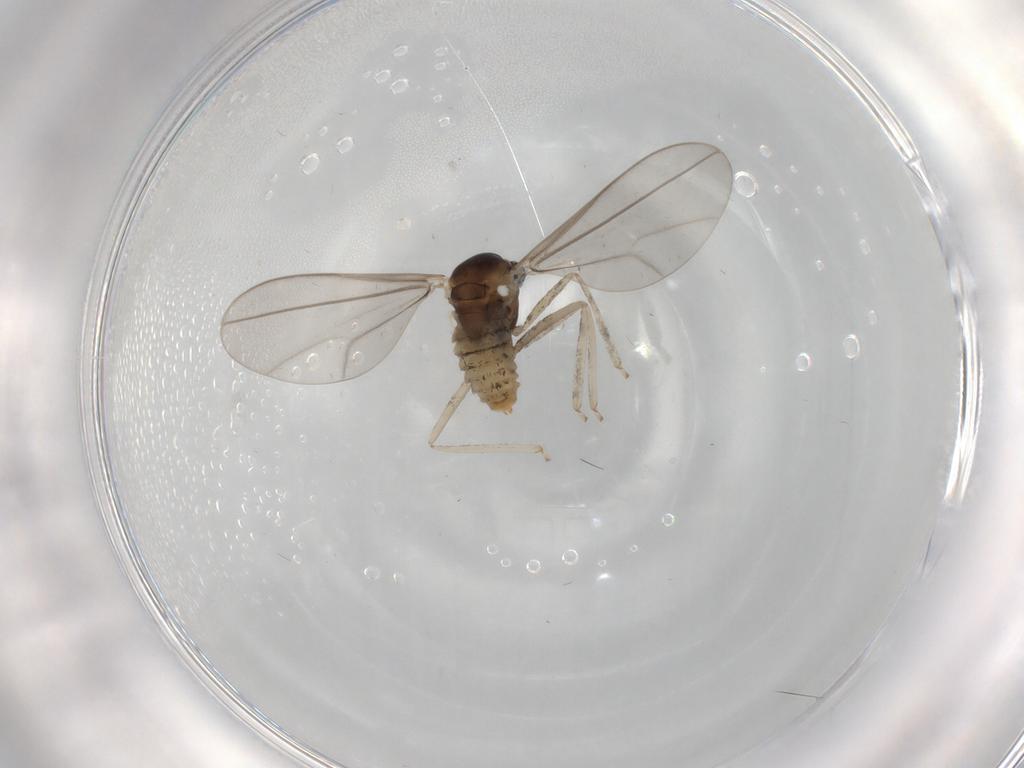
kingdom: Animalia
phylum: Arthropoda
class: Insecta
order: Diptera
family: Cecidomyiidae
